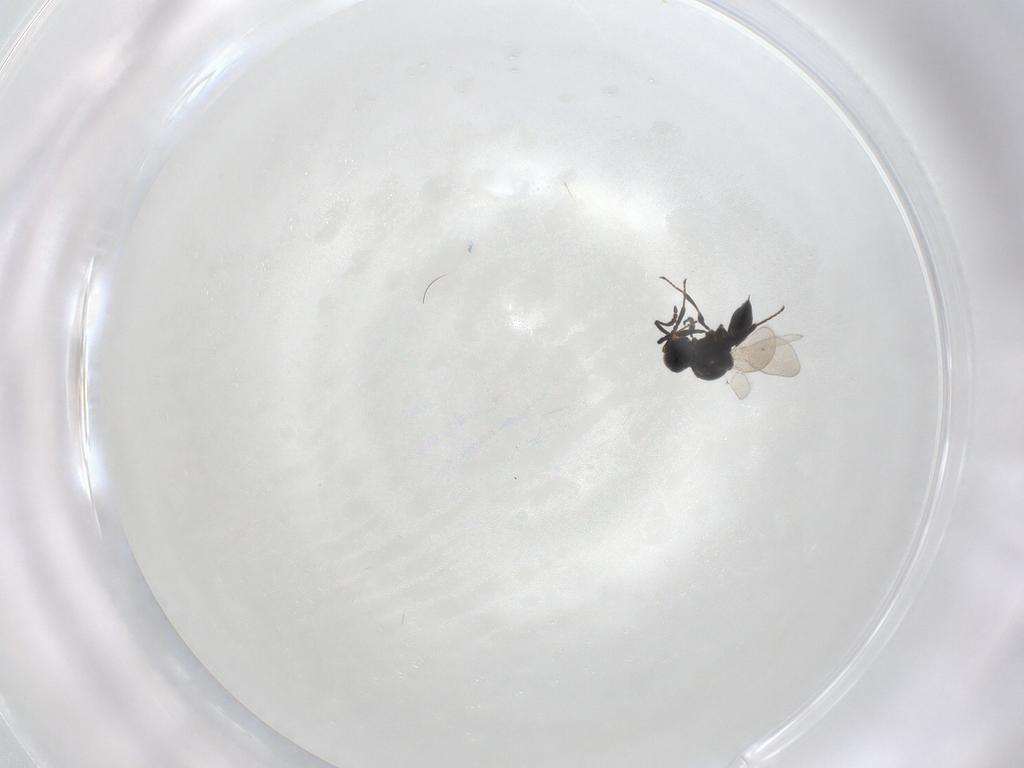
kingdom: Animalia
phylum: Arthropoda
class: Insecta
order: Hymenoptera
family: Platygastridae
